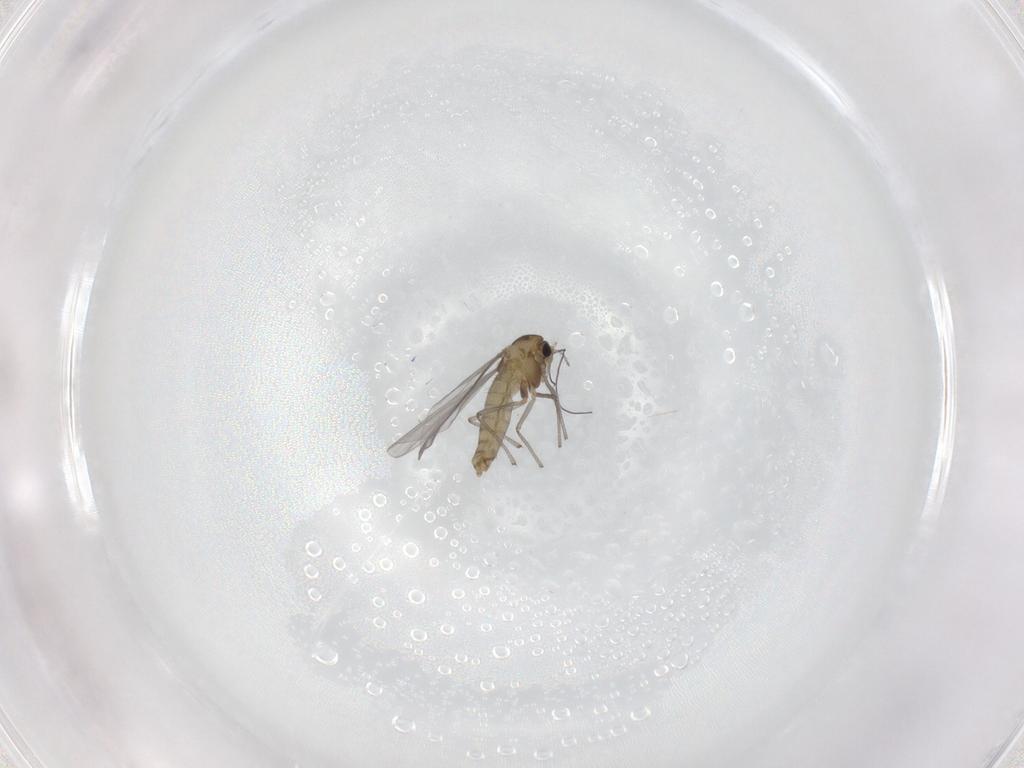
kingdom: Animalia
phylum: Arthropoda
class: Insecta
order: Diptera
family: Chironomidae
